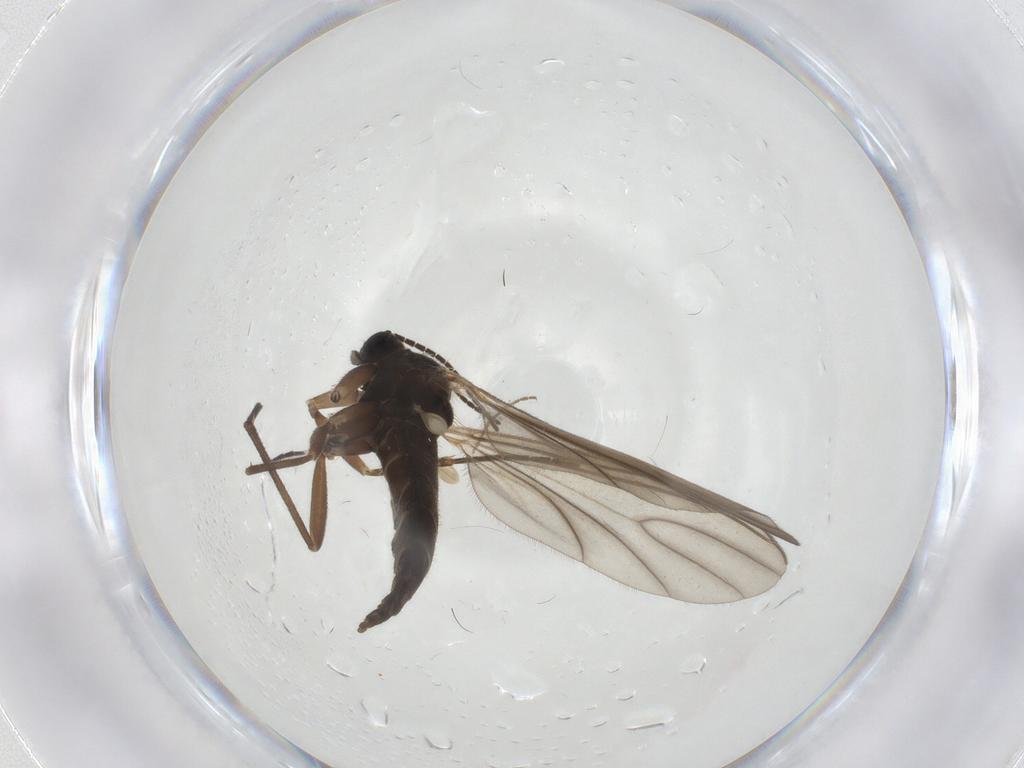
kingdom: Animalia
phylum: Arthropoda
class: Insecta
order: Diptera
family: Sciaridae
